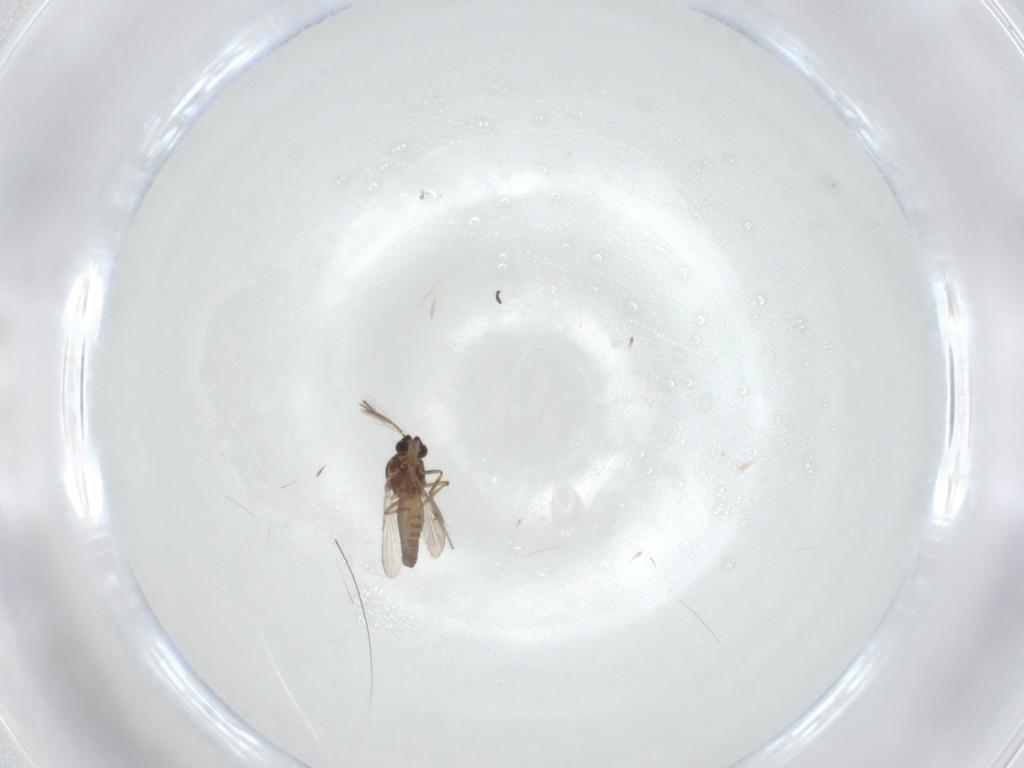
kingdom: Animalia
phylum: Arthropoda
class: Insecta
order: Diptera
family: Ceratopogonidae
